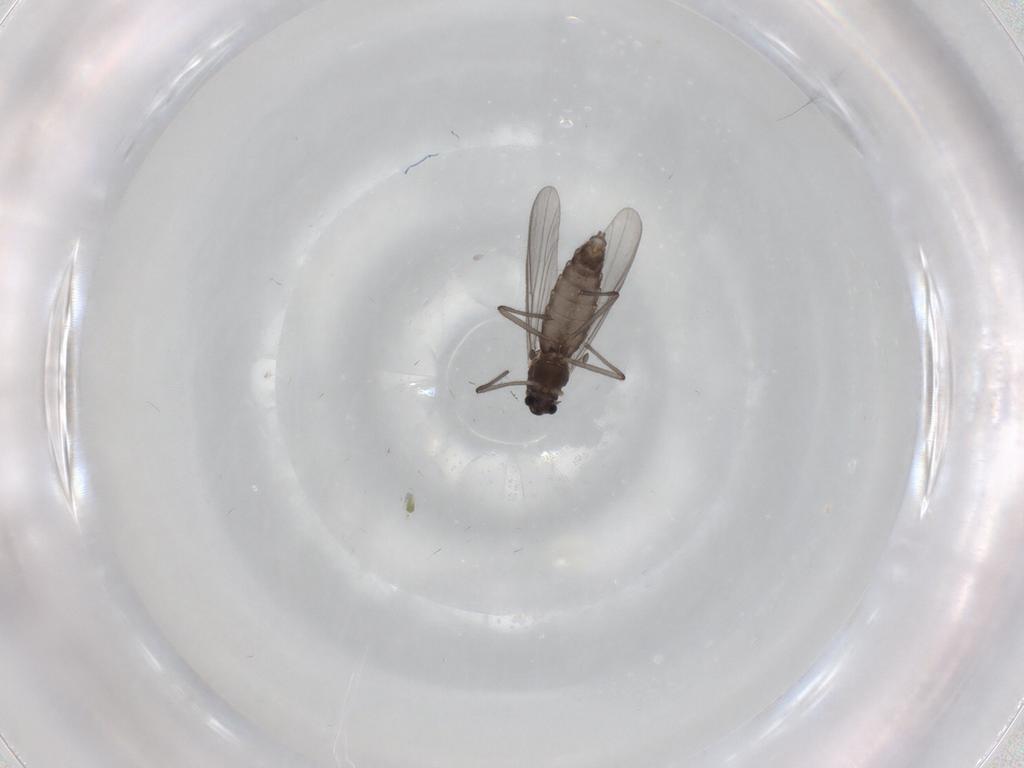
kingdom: Animalia
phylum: Arthropoda
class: Insecta
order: Diptera
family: Chironomidae
